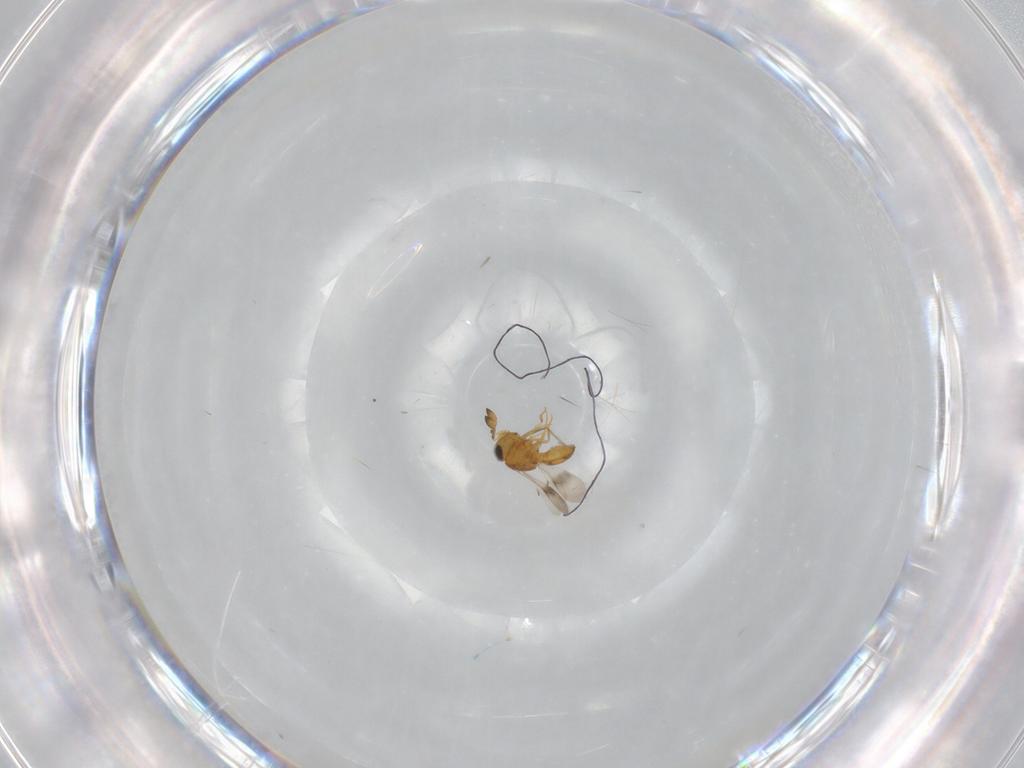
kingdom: Animalia
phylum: Arthropoda
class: Insecta
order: Hymenoptera
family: Scelionidae
